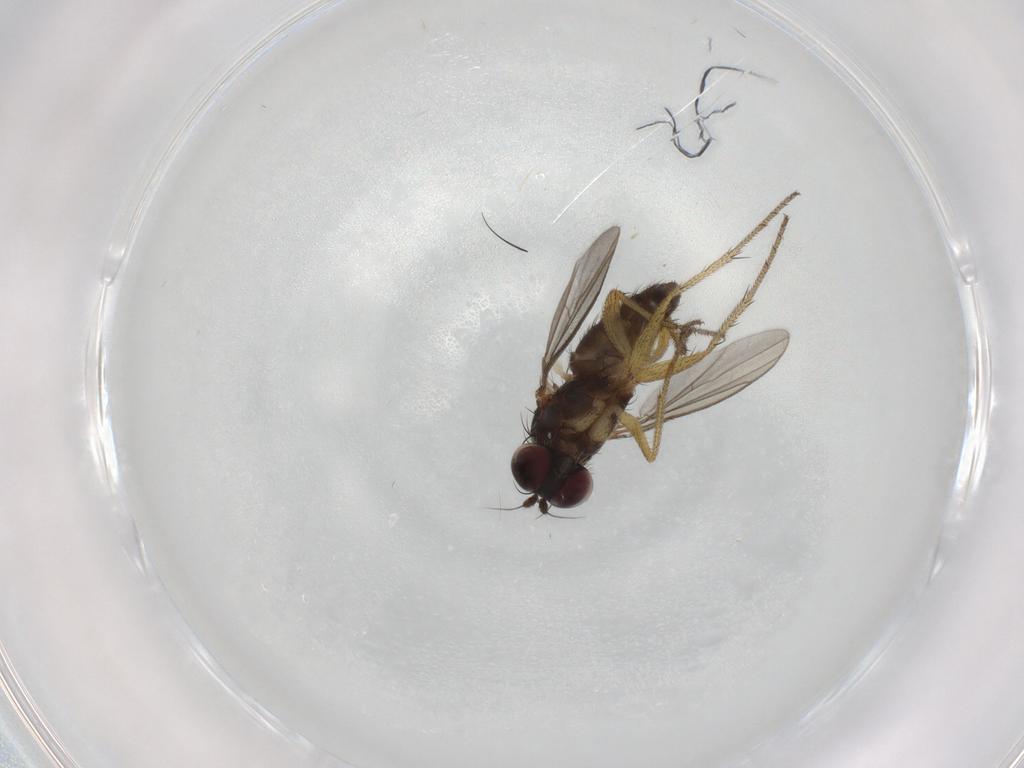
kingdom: Animalia
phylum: Arthropoda
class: Insecta
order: Diptera
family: Dolichopodidae
